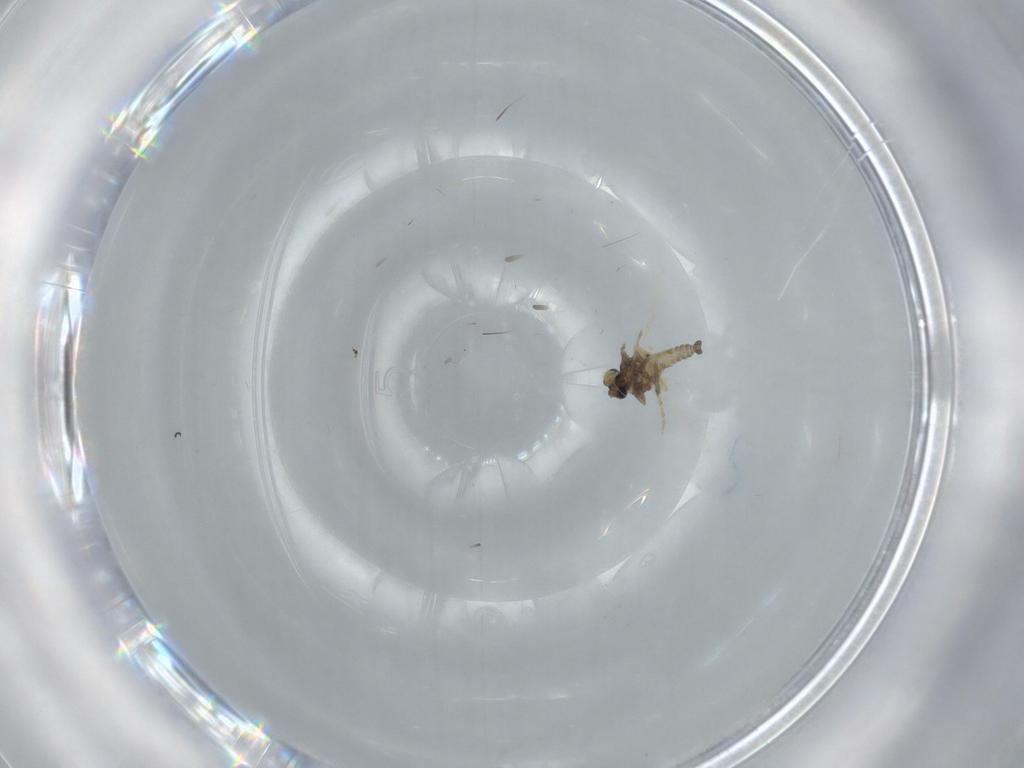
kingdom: Animalia
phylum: Arthropoda
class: Insecta
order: Diptera
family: Ceratopogonidae
